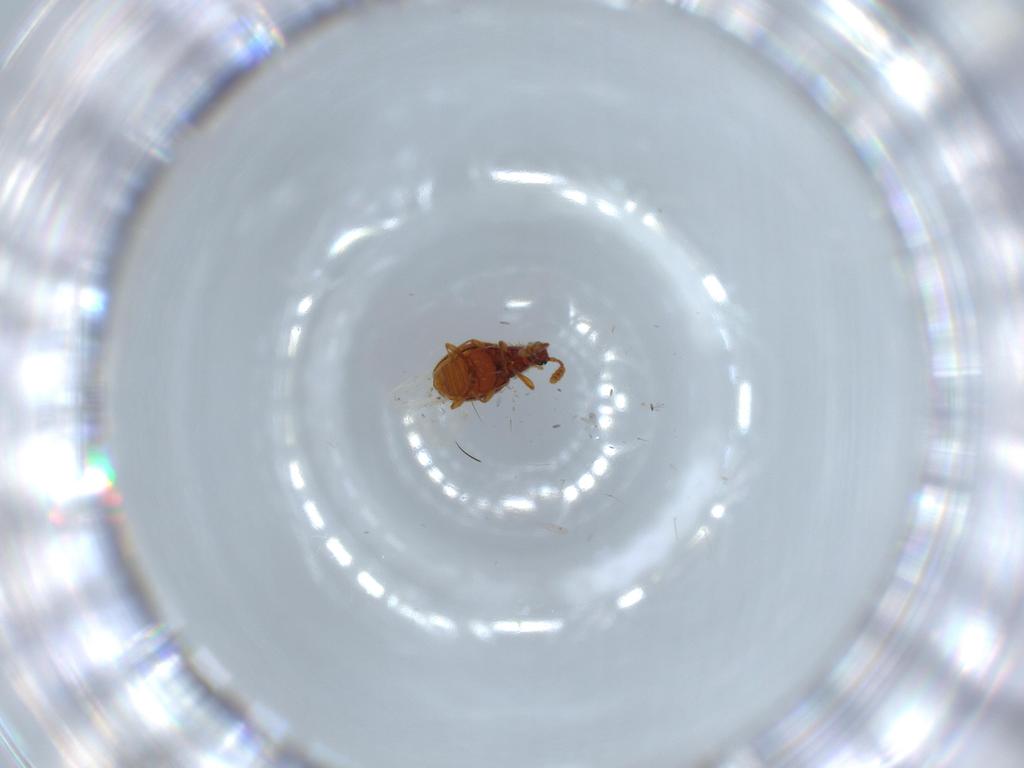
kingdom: Animalia
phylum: Arthropoda
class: Insecta
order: Coleoptera
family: Staphylinidae
